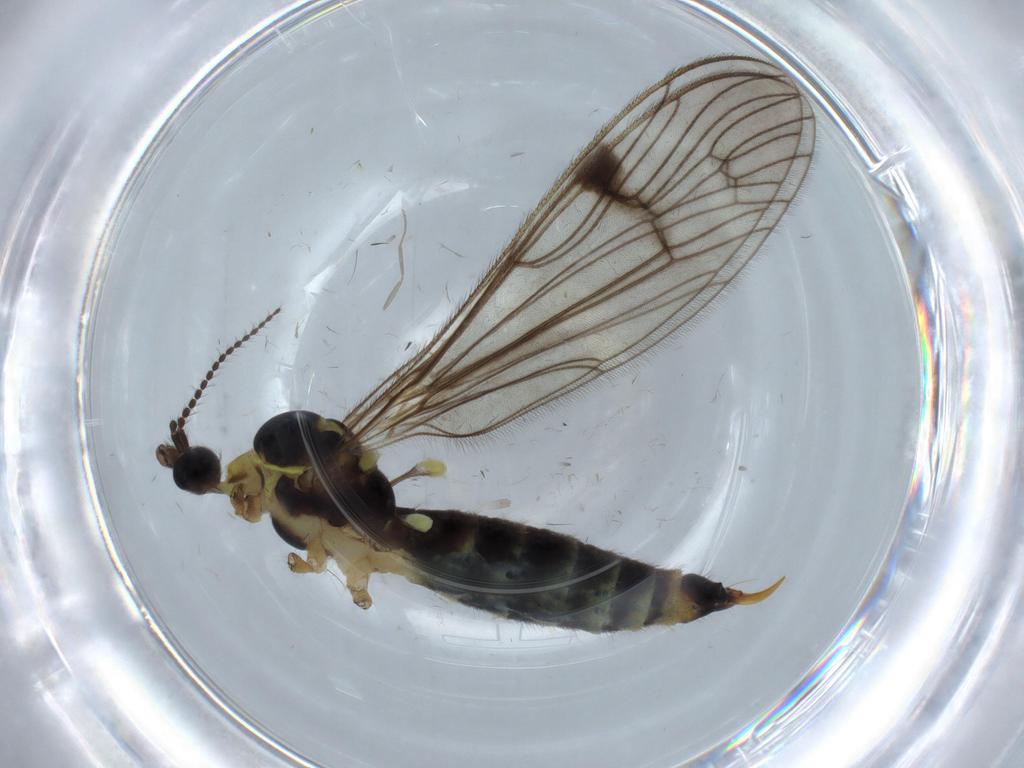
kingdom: Animalia
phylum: Arthropoda
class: Insecta
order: Diptera
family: Limoniidae
